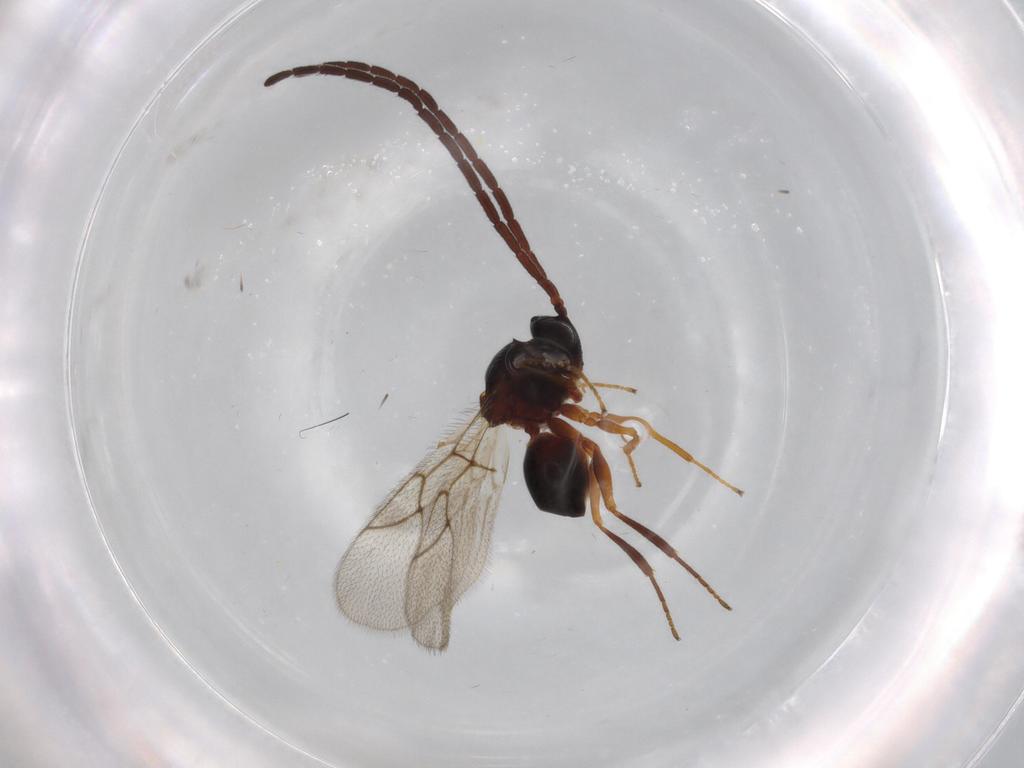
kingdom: Animalia
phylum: Arthropoda
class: Insecta
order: Hymenoptera
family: Figitidae
